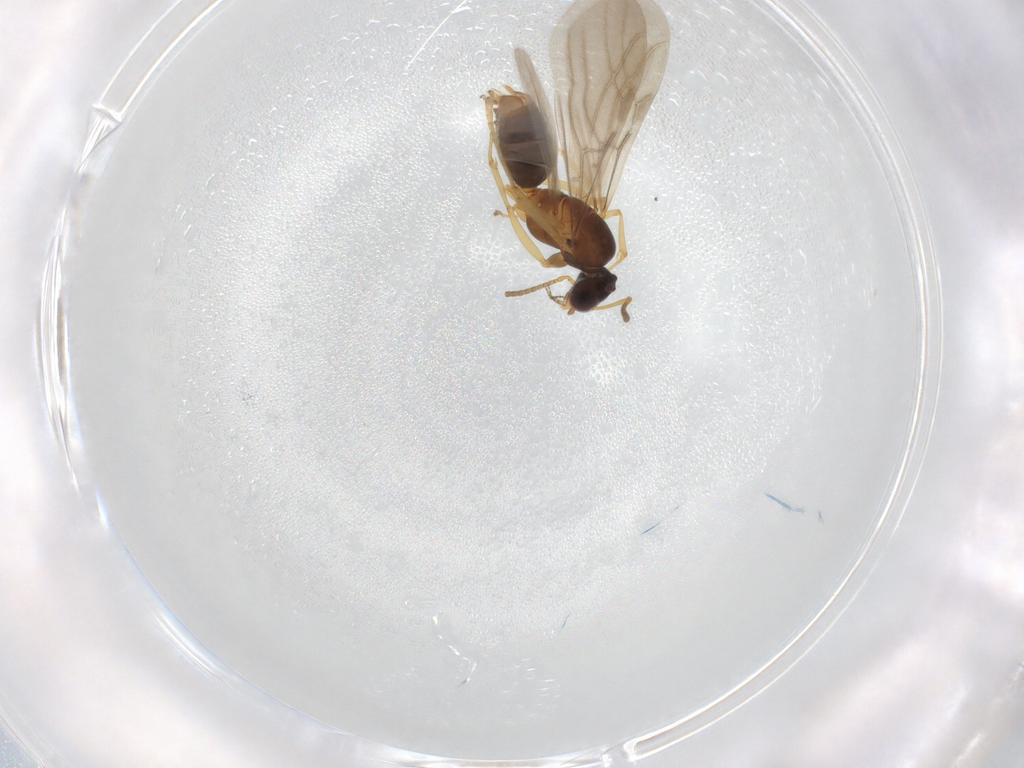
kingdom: Animalia
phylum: Arthropoda
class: Insecta
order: Hymenoptera
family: Formicidae
